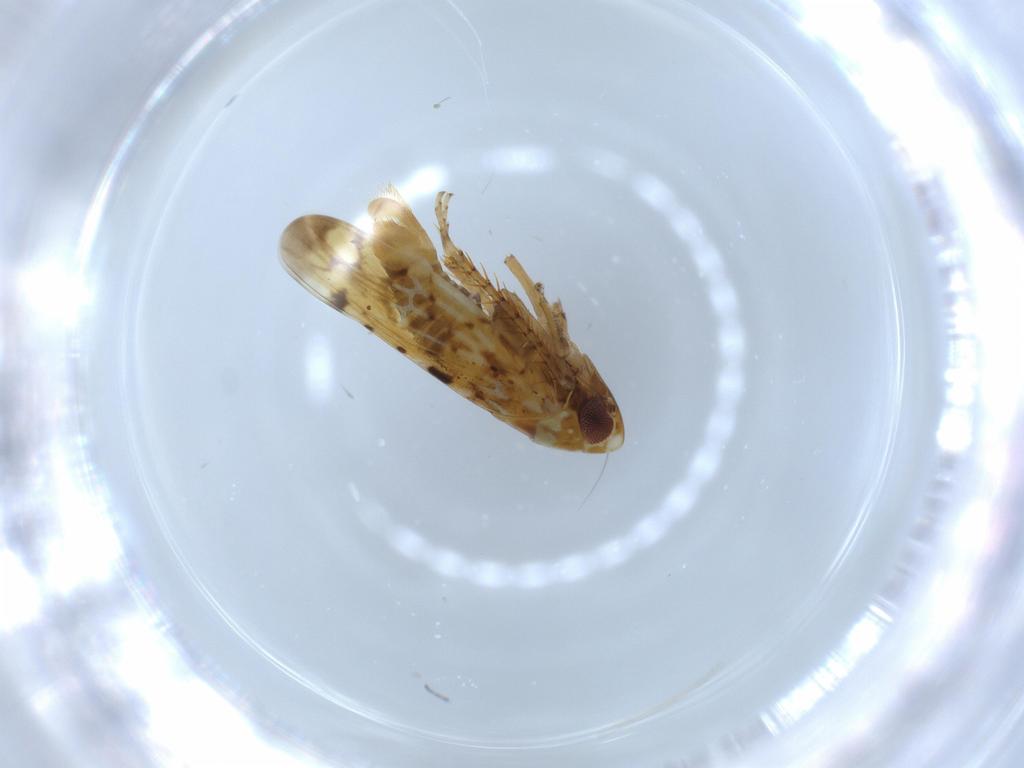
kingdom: Animalia
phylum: Arthropoda
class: Insecta
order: Hemiptera
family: Cicadellidae
